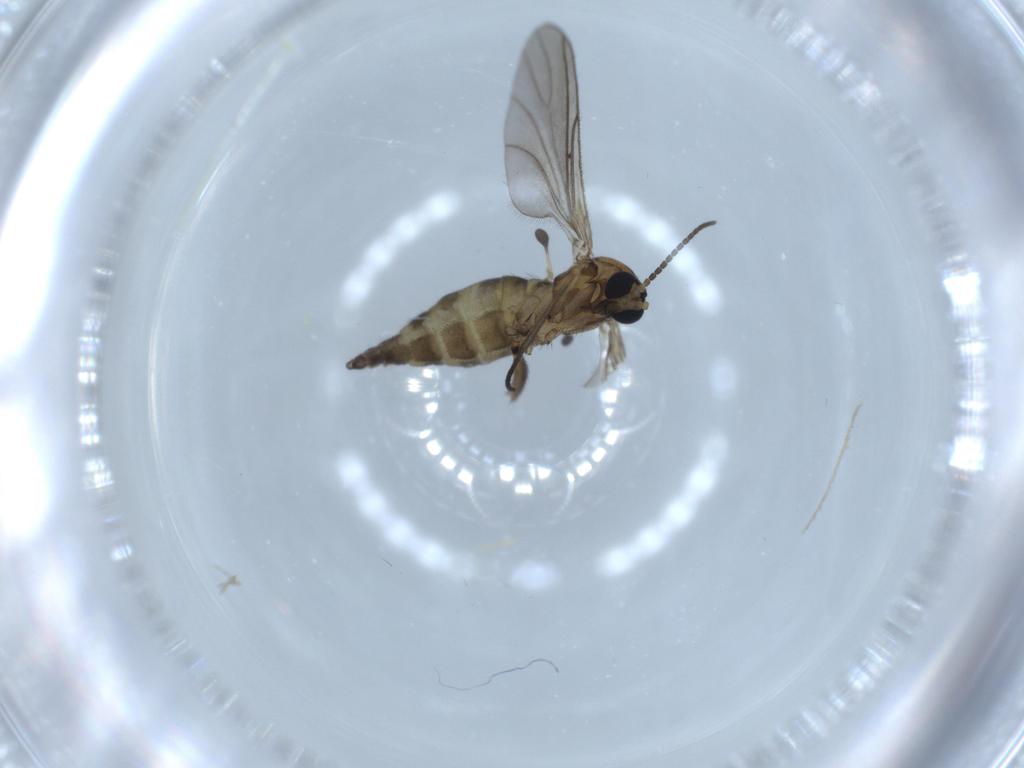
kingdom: Animalia
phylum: Arthropoda
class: Insecta
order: Diptera
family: Sciaridae
